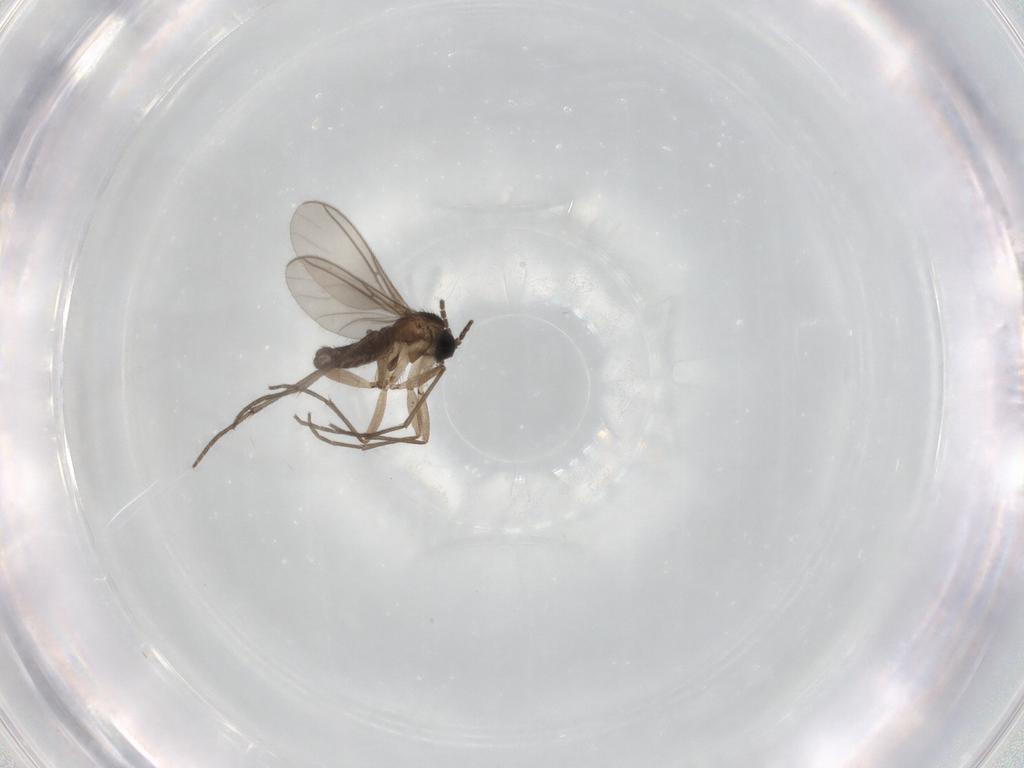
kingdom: Animalia
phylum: Arthropoda
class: Insecta
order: Diptera
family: Sciaridae
